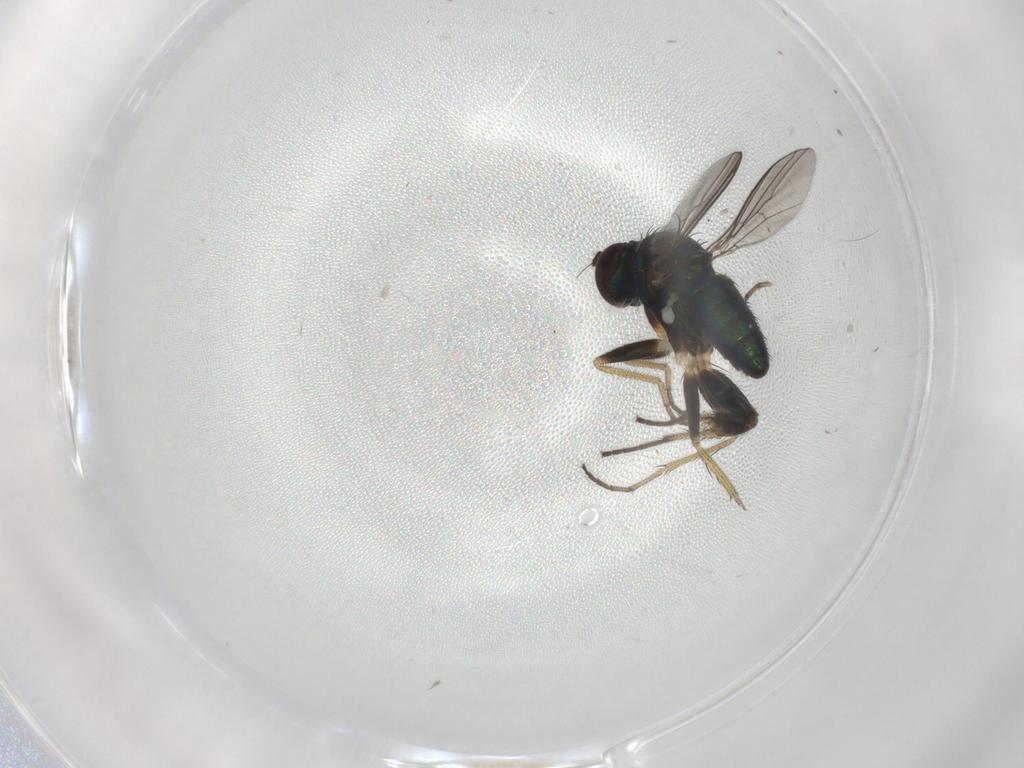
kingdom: Animalia
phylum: Arthropoda
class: Insecta
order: Diptera
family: Dolichopodidae
